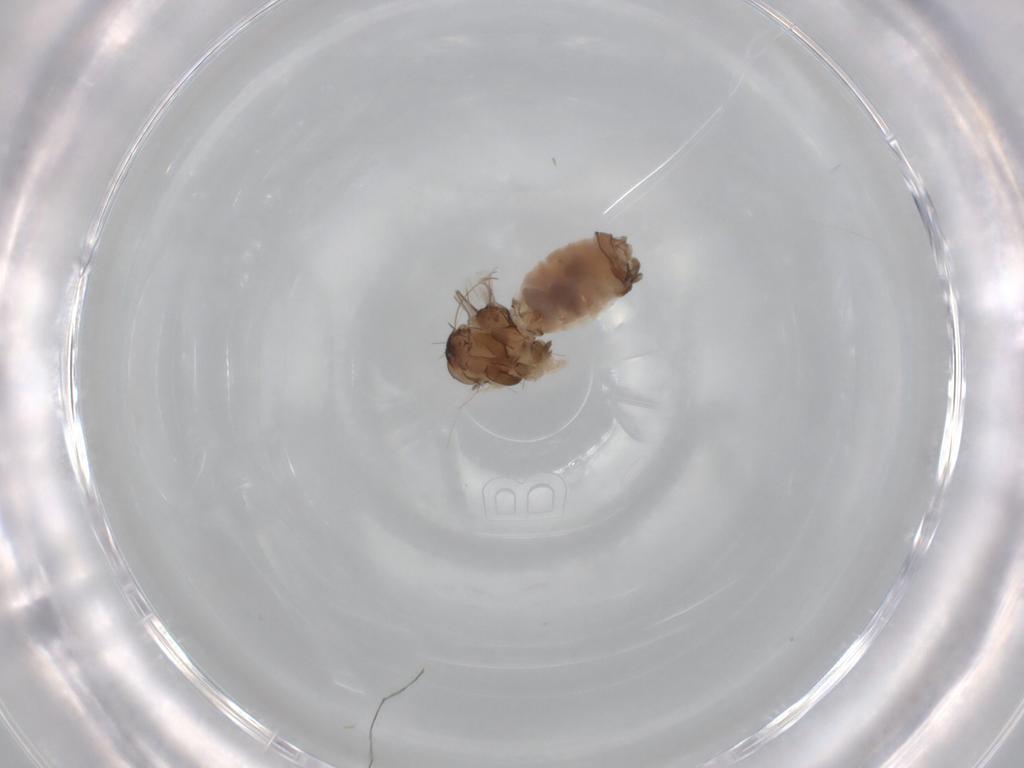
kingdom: Animalia
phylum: Arthropoda
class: Insecta
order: Psocodea
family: Peripsocidae
